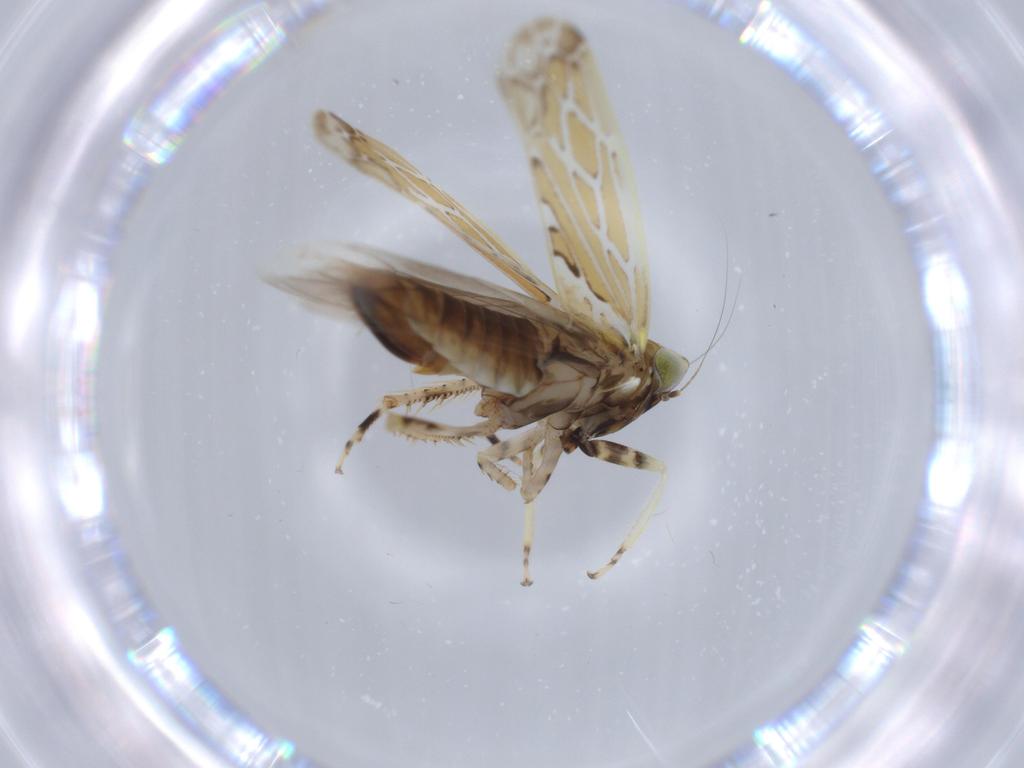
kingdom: Animalia
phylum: Arthropoda
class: Insecta
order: Hemiptera
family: Cicadellidae
